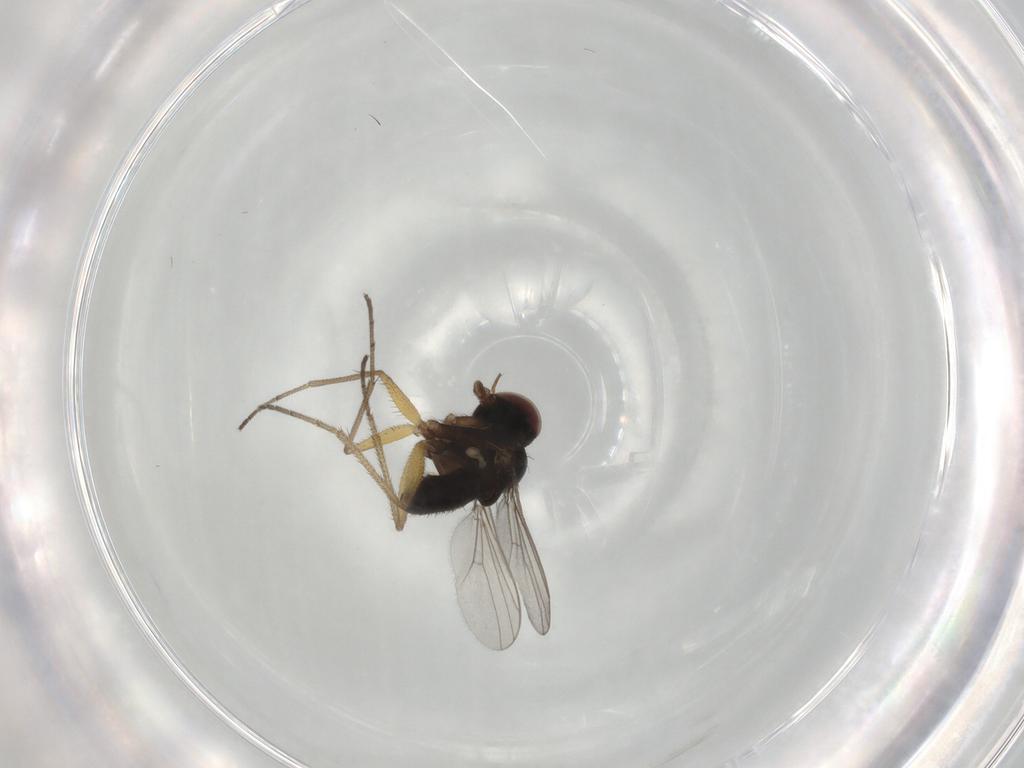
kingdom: Animalia
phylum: Arthropoda
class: Insecta
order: Diptera
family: Dolichopodidae
